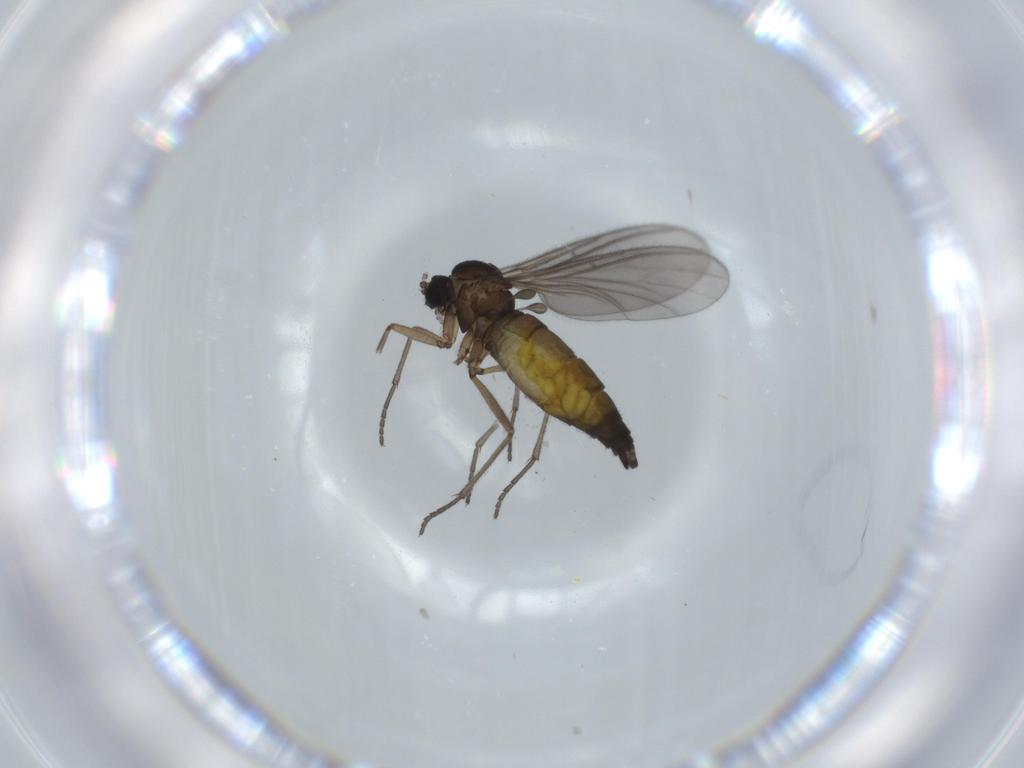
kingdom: Animalia
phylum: Arthropoda
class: Insecta
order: Diptera
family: Sciaridae
